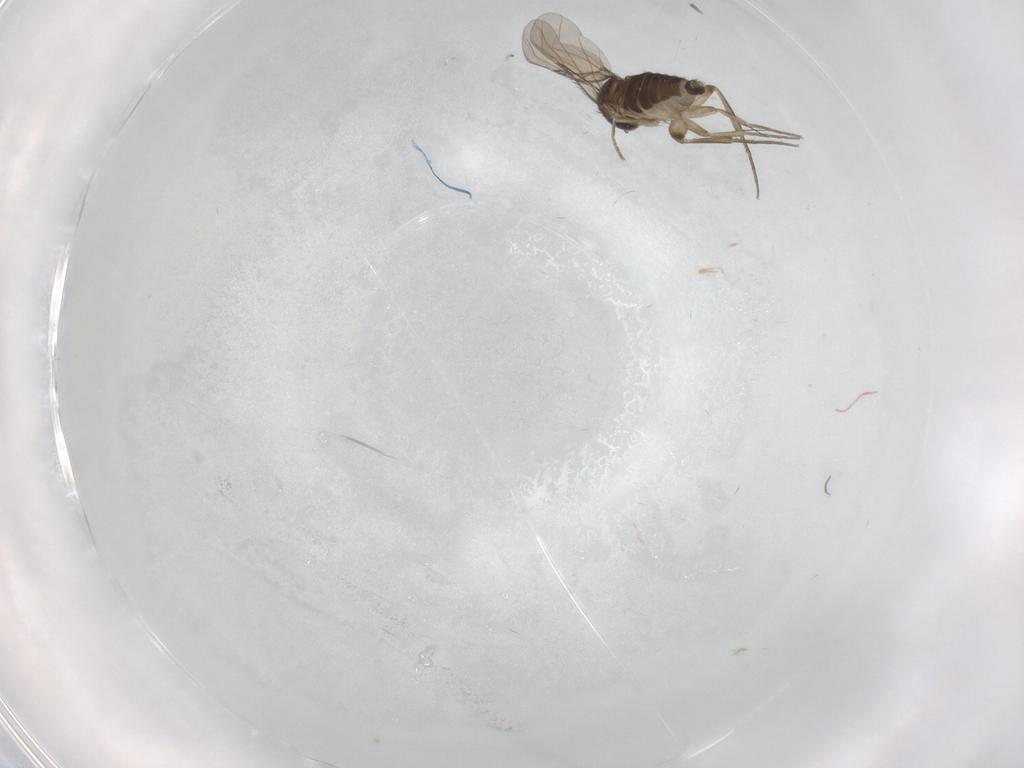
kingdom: Animalia
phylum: Arthropoda
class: Insecta
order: Diptera
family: Phoridae
